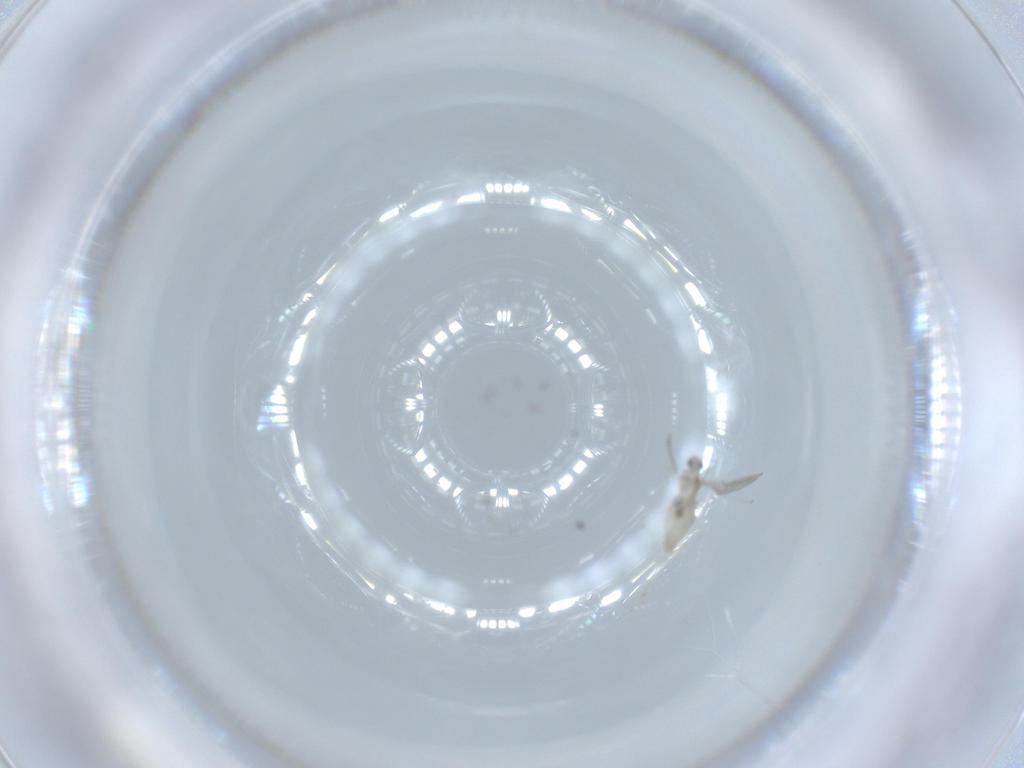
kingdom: Animalia
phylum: Arthropoda
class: Insecta
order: Diptera
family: Cecidomyiidae
